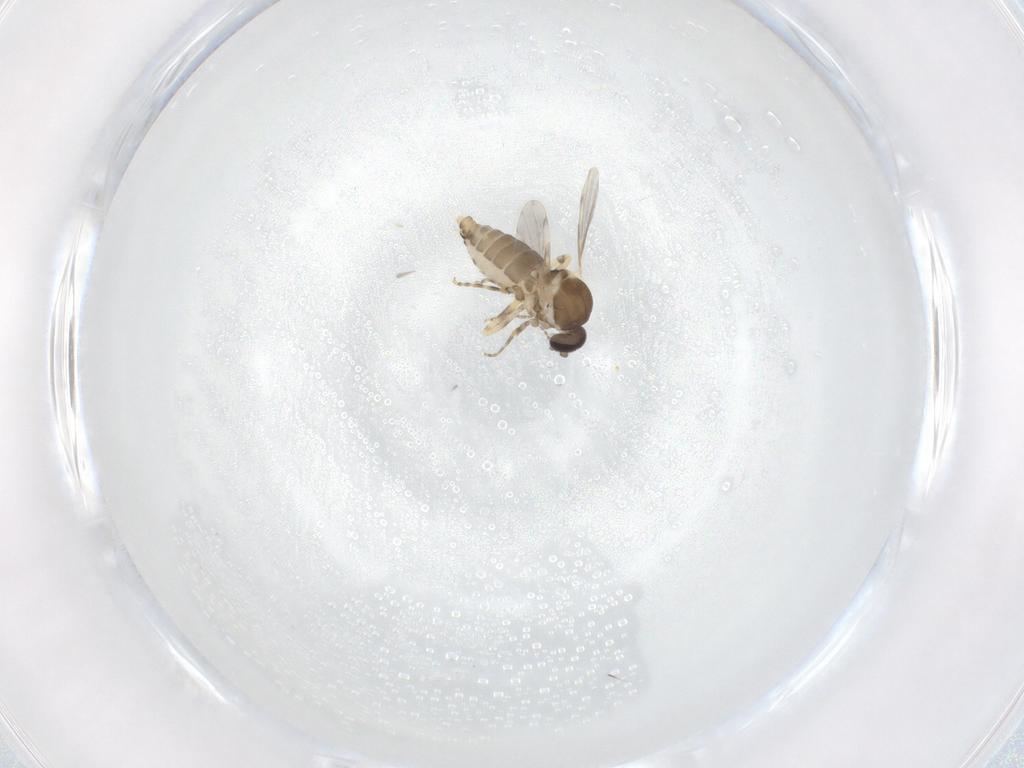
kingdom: Animalia
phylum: Arthropoda
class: Insecta
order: Diptera
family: Ceratopogonidae
